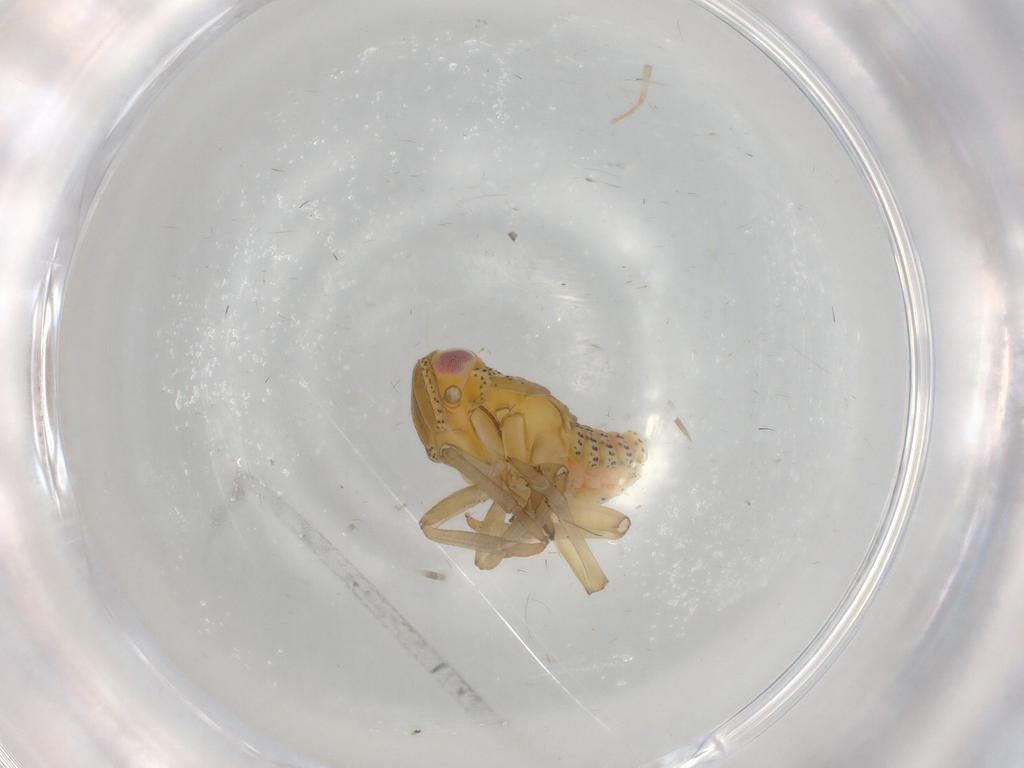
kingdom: Animalia
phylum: Arthropoda
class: Insecta
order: Hemiptera
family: Tropiduchidae
